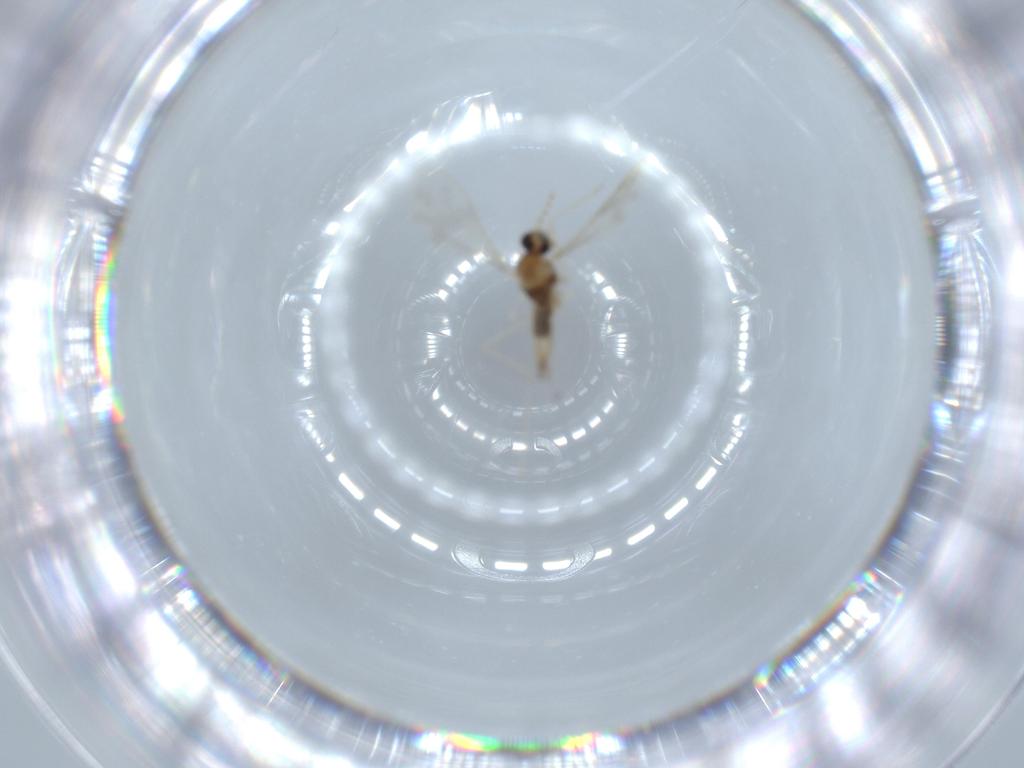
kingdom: Animalia
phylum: Arthropoda
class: Insecta
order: Diptera
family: Cecidomyiidae
